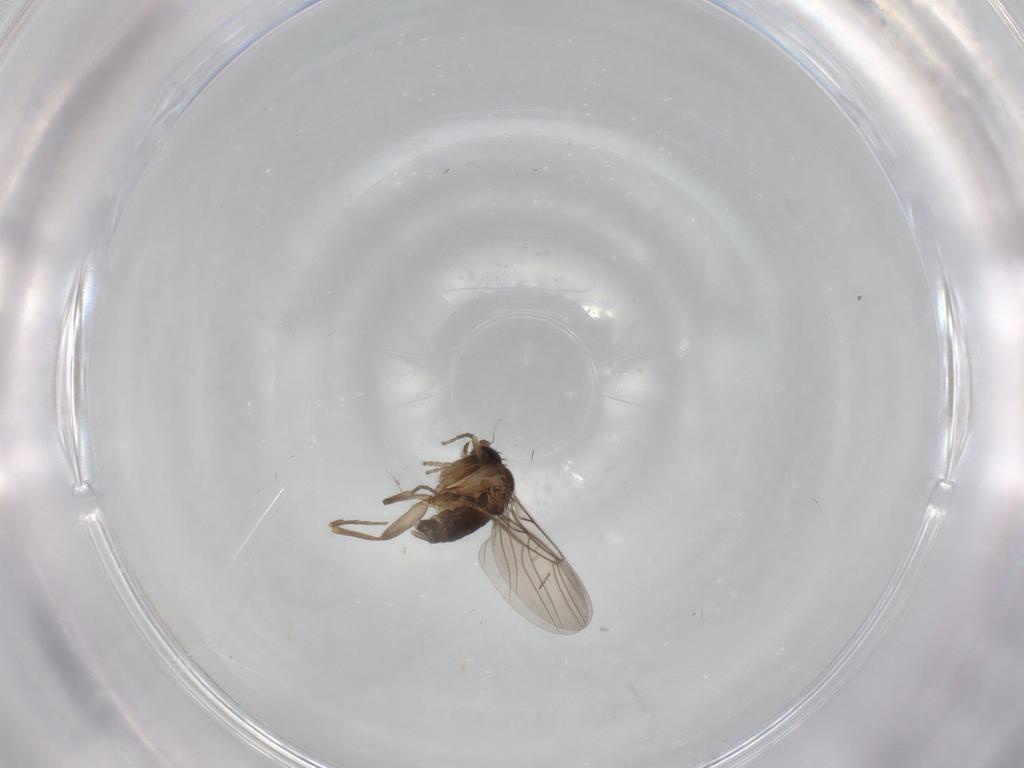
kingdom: Animalia
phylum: Arthropoda
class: Insecta
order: Diptera
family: Phoridae
